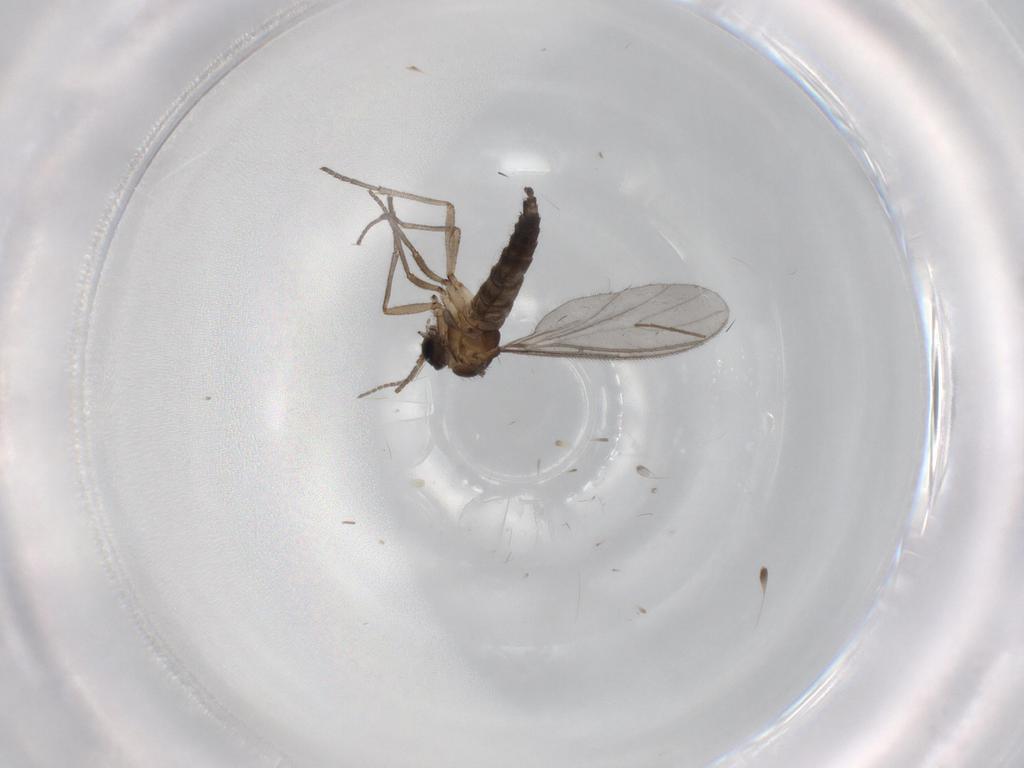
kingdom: Animalia
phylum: Arthropoda
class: Insecta
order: Diptera
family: Sciaridae
